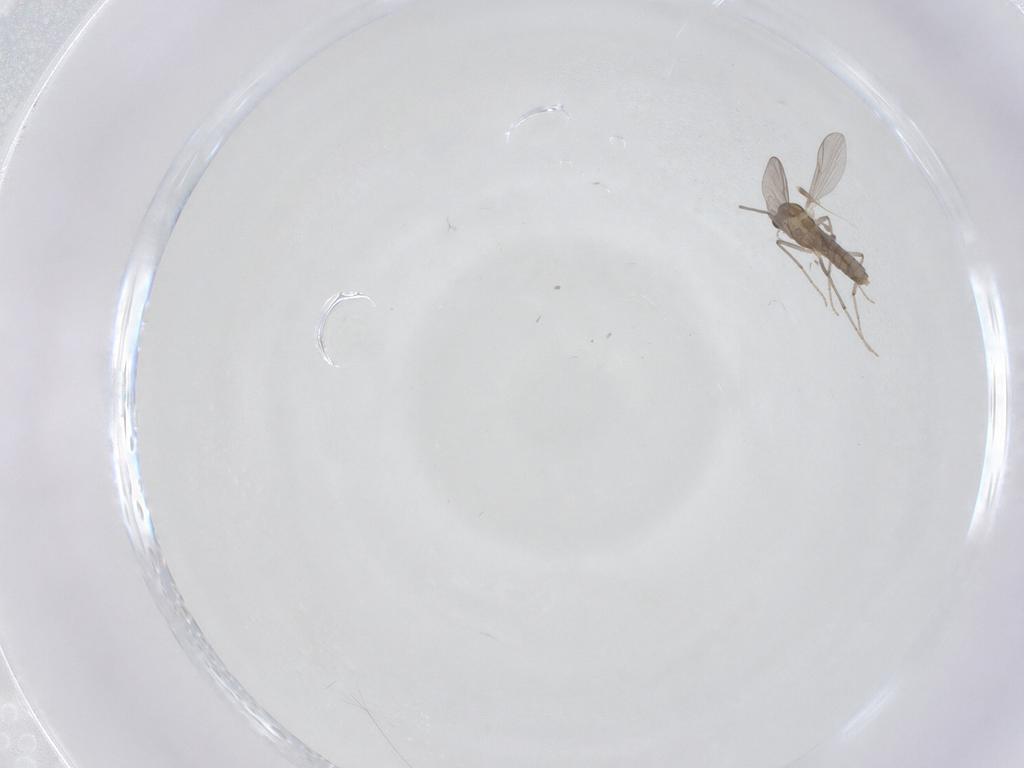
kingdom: Animalia
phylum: Arthropoda
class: Insecta
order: Diptera
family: Chironomidae
